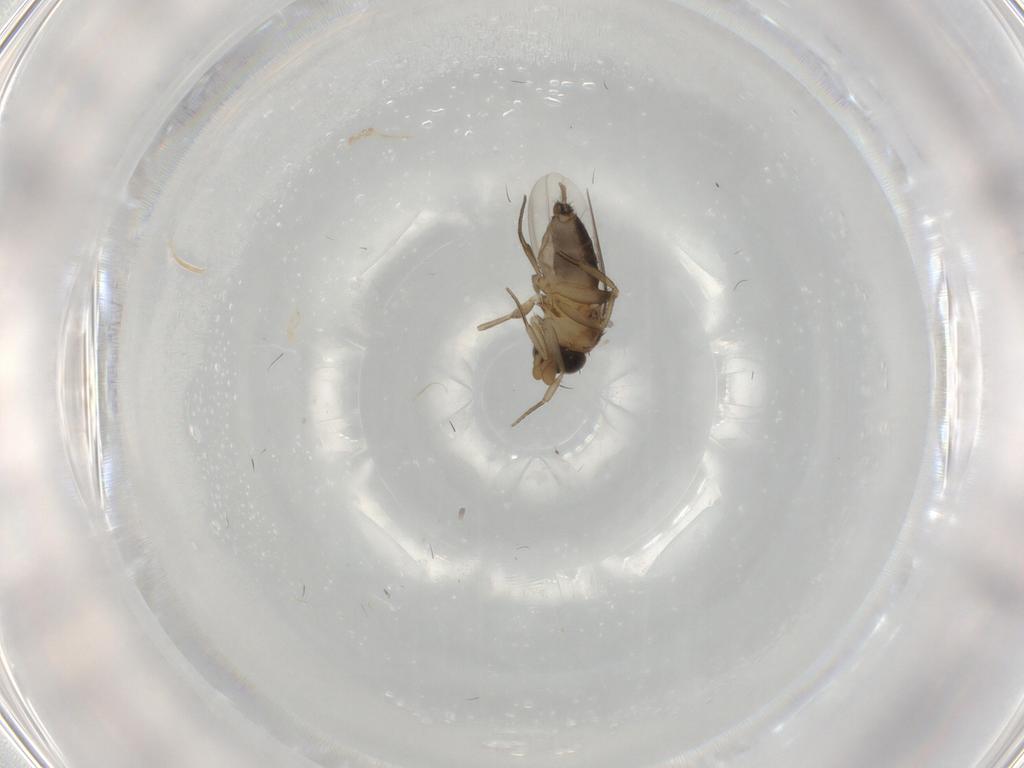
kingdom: Animalia
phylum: Arthropoda
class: Insecta
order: Diptera
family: Phoridae
